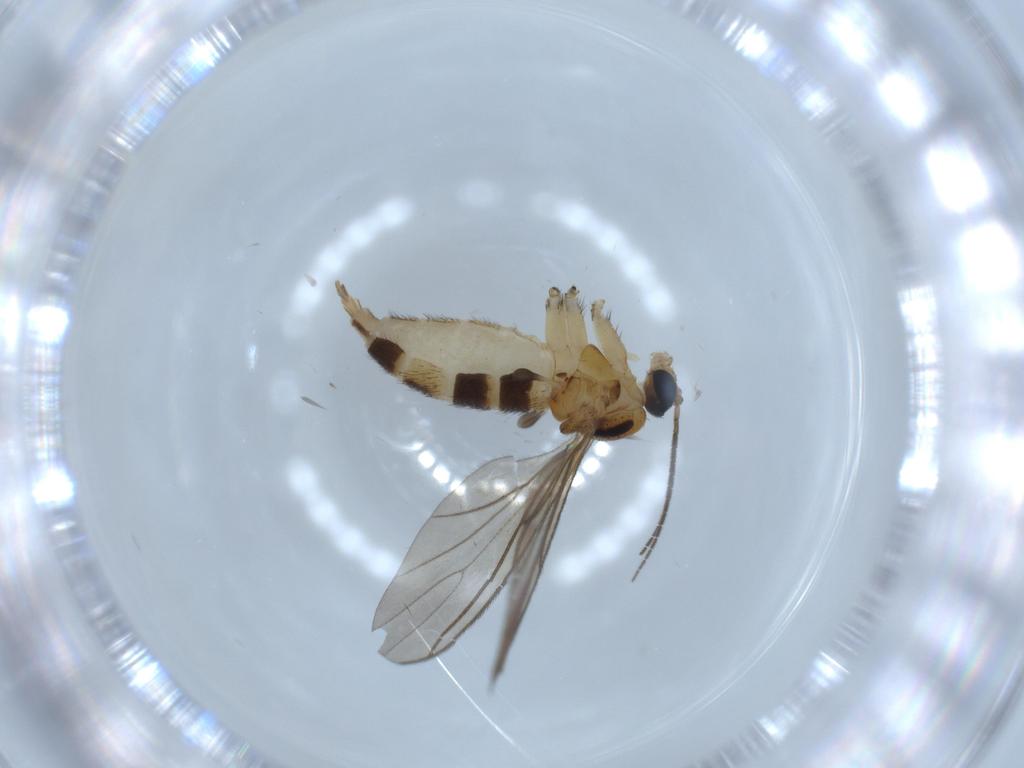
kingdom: Animalia
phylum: Arthropoda
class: Insecta
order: Diptera
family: Sciaridae
